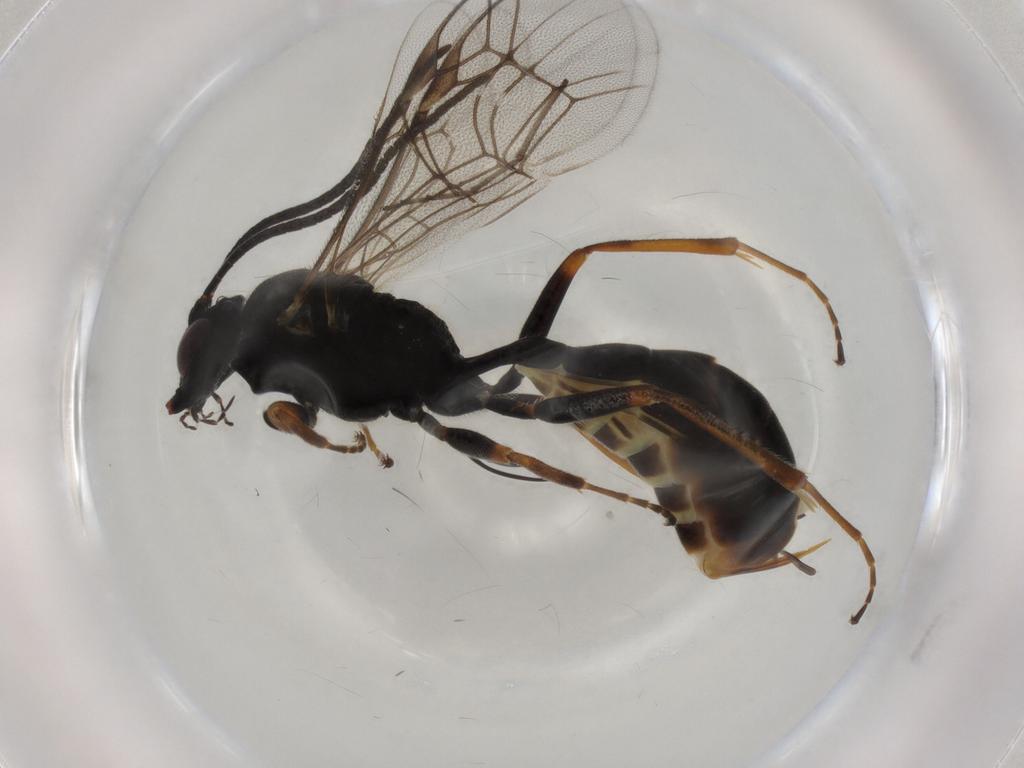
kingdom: Animalia
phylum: Arthropoda
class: Insecta
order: Hymenoptera
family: Ichneumonidae
